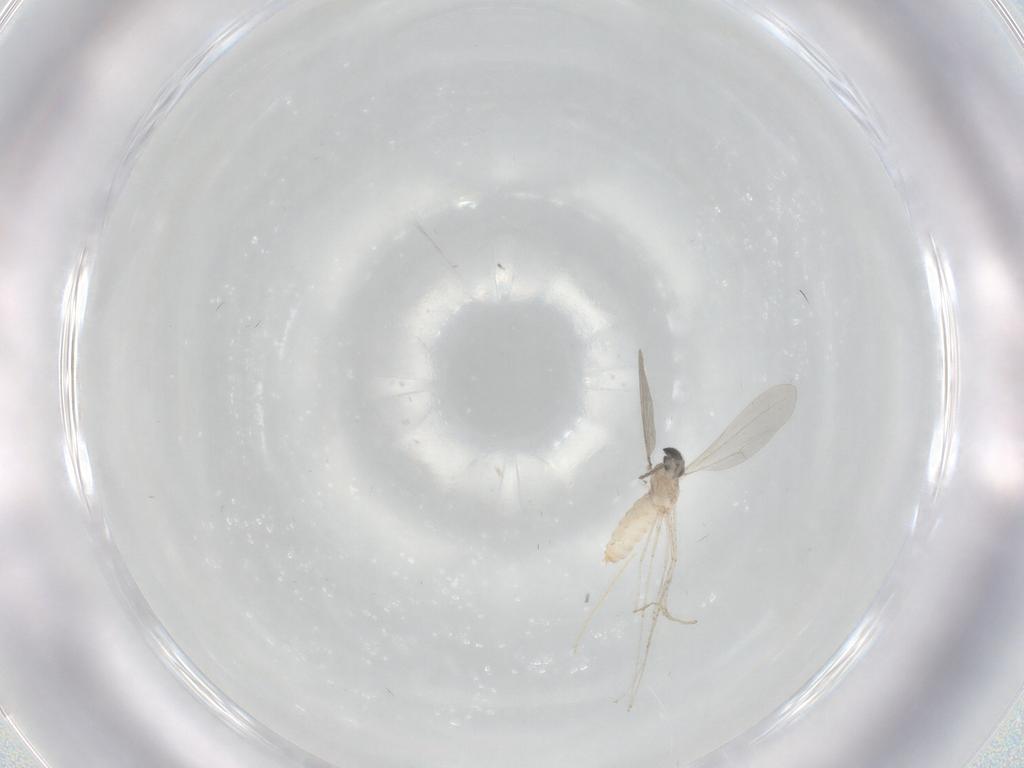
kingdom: Animalia
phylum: Arthropoda
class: Insecta
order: Diptera
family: Cecidomyiidae
